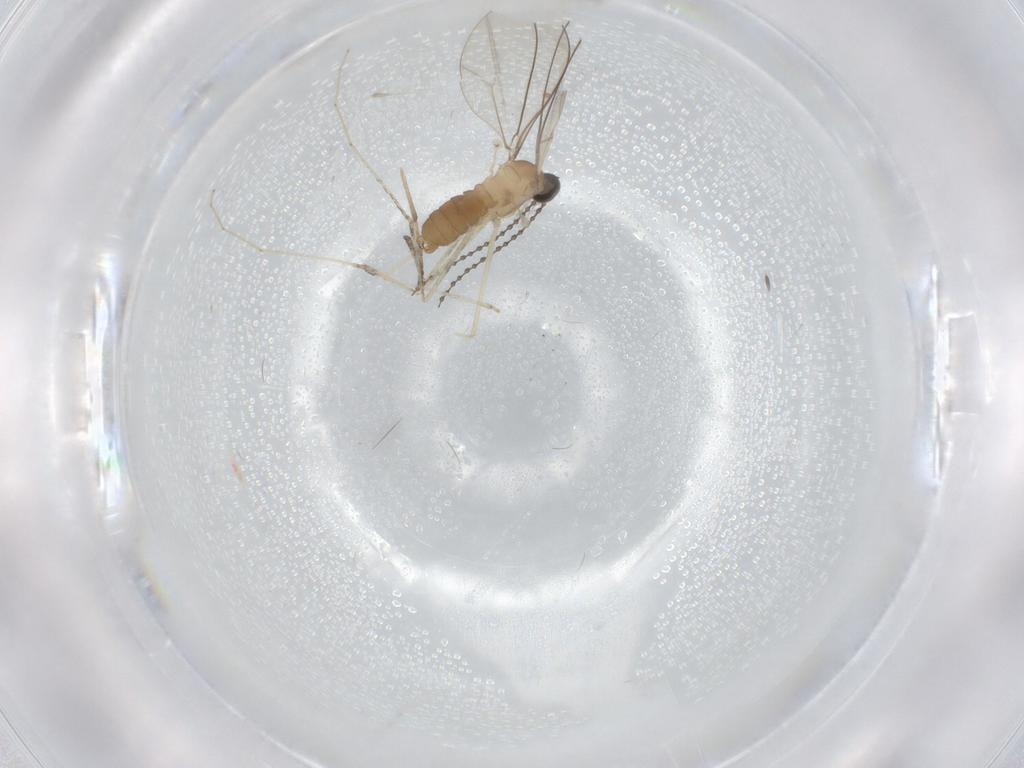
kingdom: Animalia
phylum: Arthropoda
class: Insecta
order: Diptera
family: Cecidomyiidae
